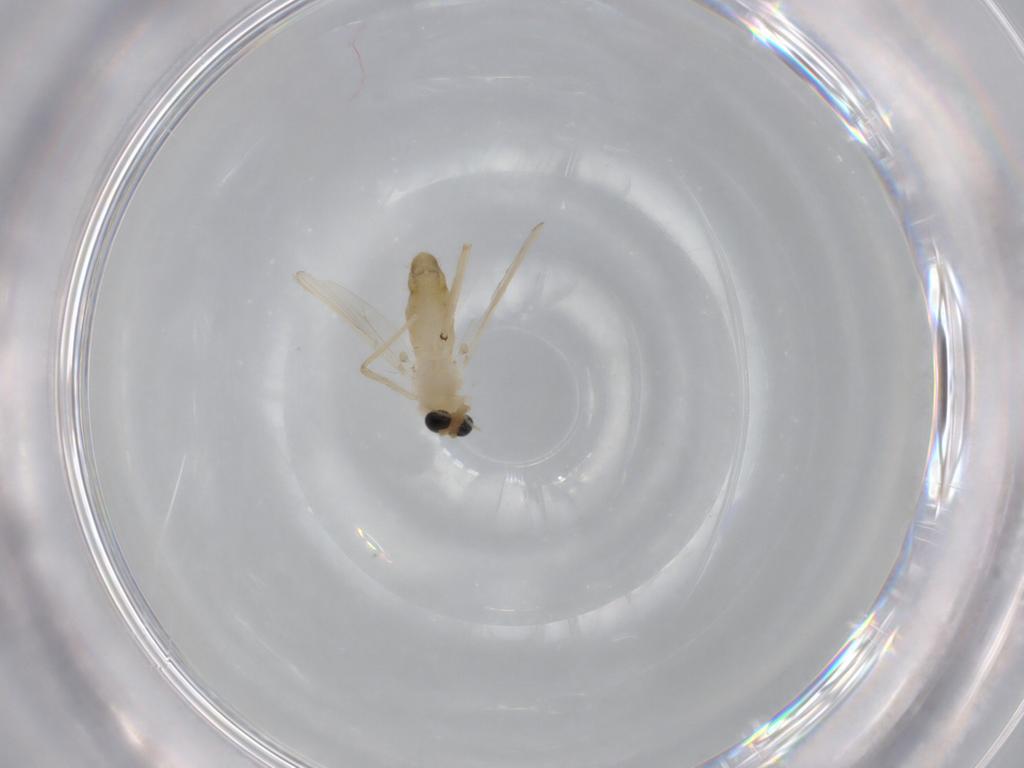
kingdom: Animalia
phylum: Arthropoda
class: Insecta
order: Diptera
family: Chironomidae
